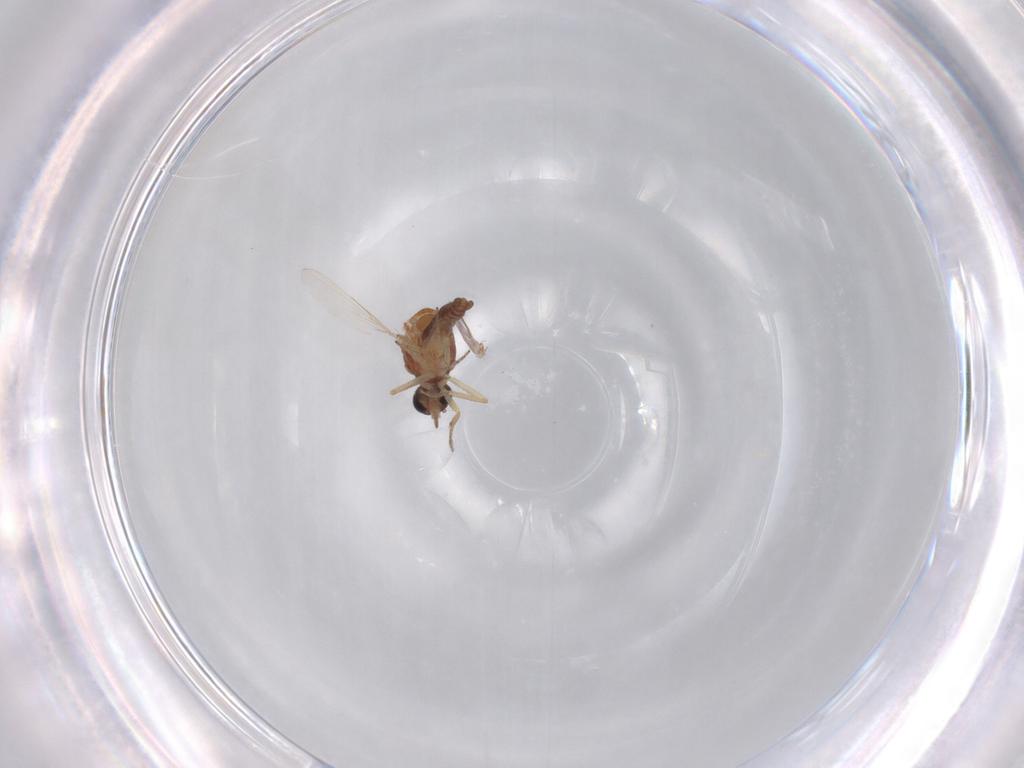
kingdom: Animalia
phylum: Arthropoda
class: Insecta
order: Diptera
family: Ceratopogonidae
